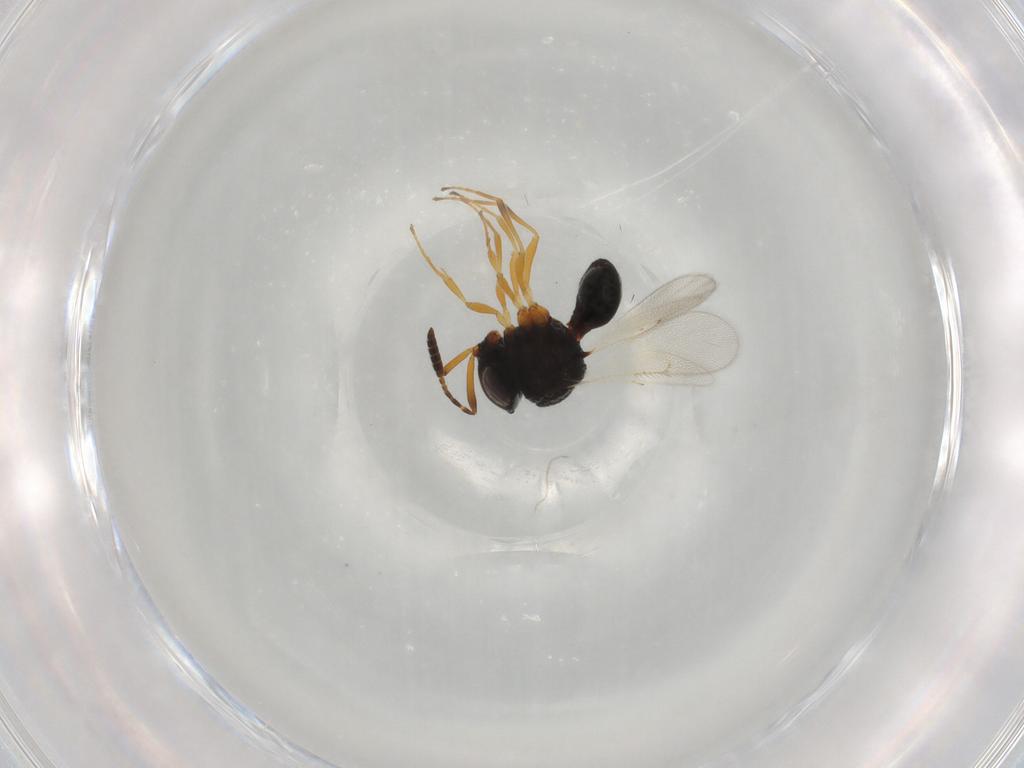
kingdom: Animalia
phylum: Arthropoda
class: Insecta
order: Hymenoptera
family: Scelionidae
